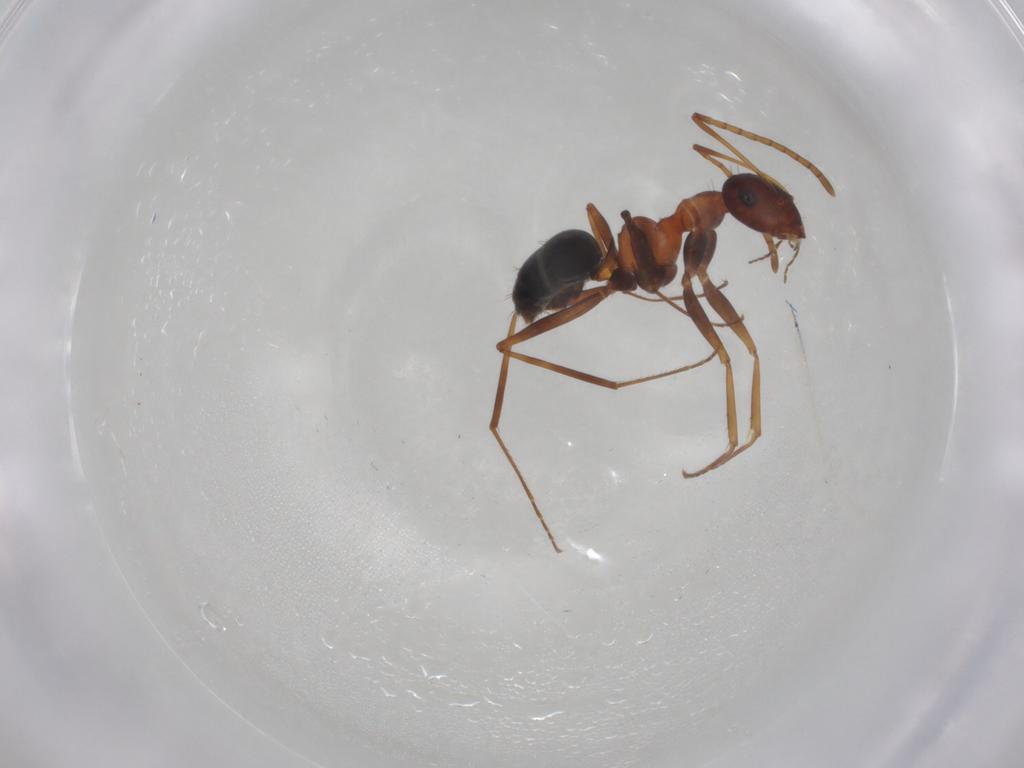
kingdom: Animalia
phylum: Arthropoda
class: Insecta
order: Hymenoptera
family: Formicidae
